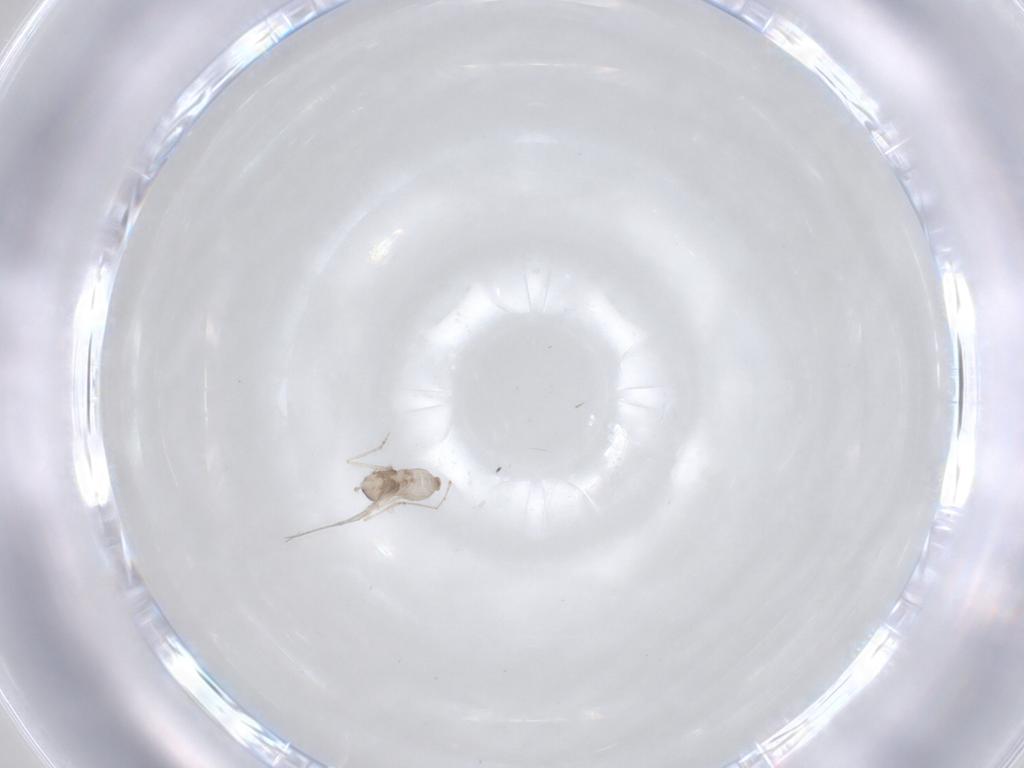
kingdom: Animalia
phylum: Arthropoda
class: Insecta
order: Diptera
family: Cecidomyiidae
